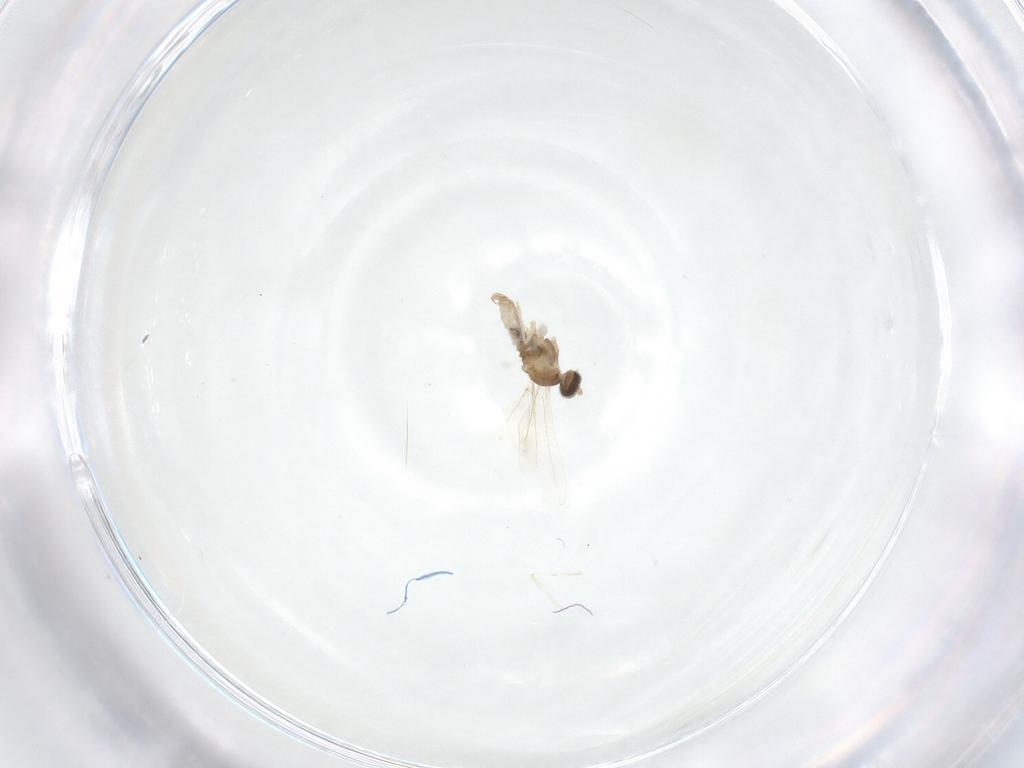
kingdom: Animalia
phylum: Arthropoda
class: Insecta
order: Diptera
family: Cecidomyiidae
